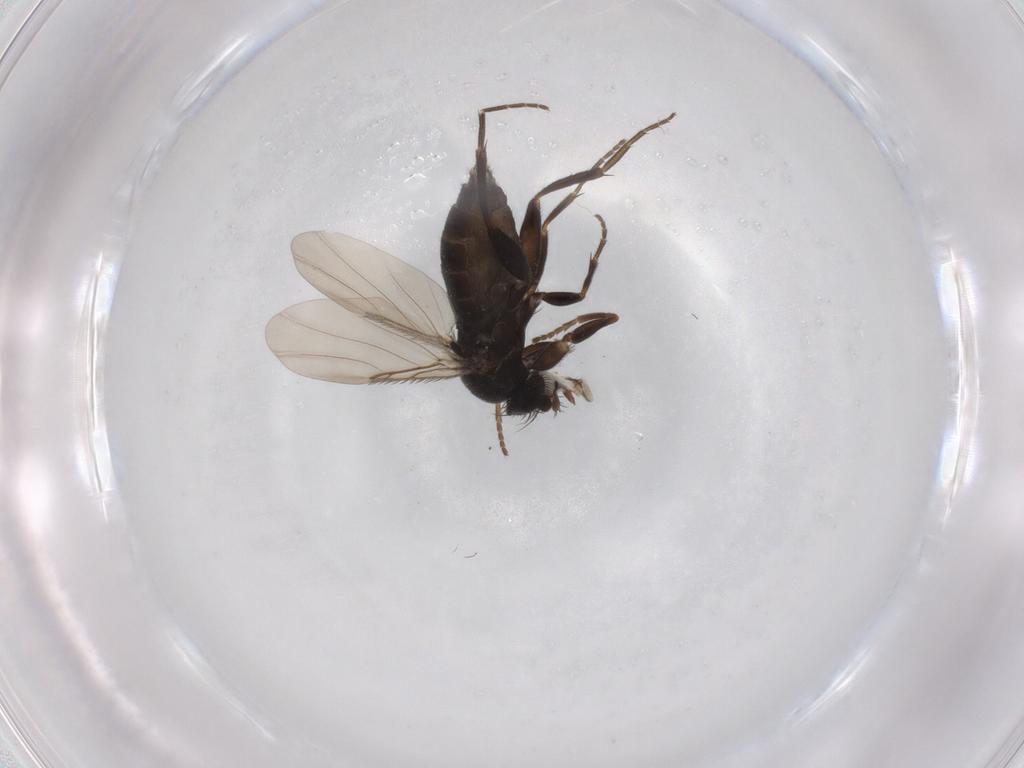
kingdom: Animalia
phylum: Arthropoda
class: Insecta
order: Diptera
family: Phoridae
